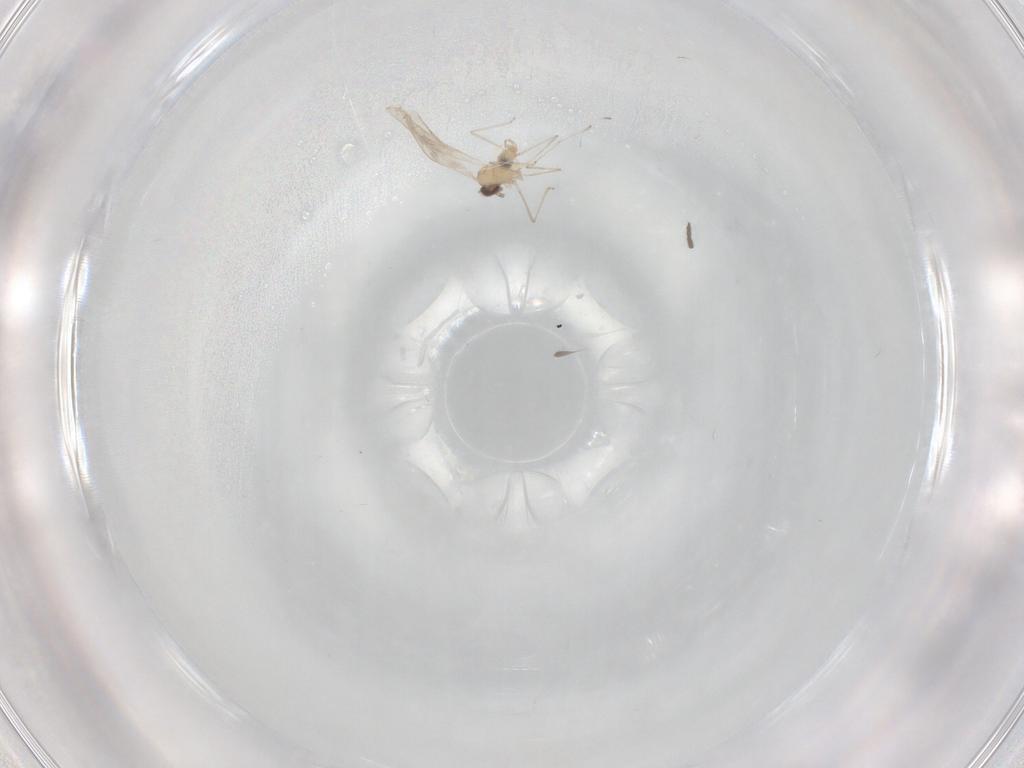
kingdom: Animalia
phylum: Arthropoda
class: Insecta
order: Diptera
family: Mycetophilidae
